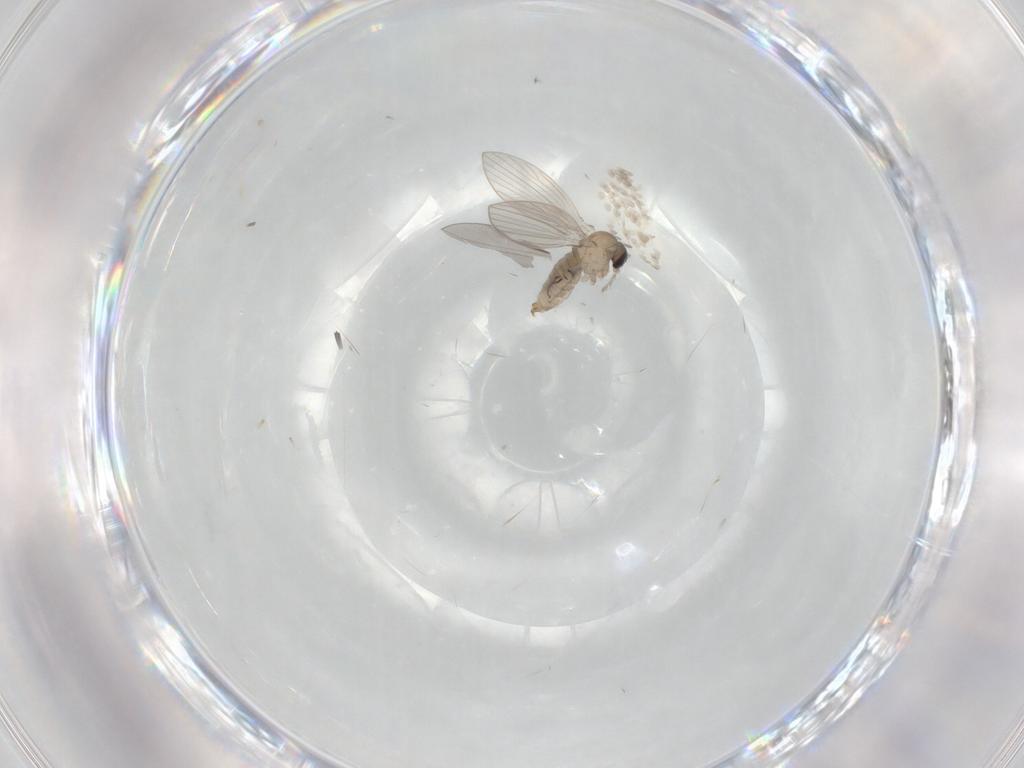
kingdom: Animalia
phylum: Arthropoda
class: Insecta
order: Diptera
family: Psychodidae
